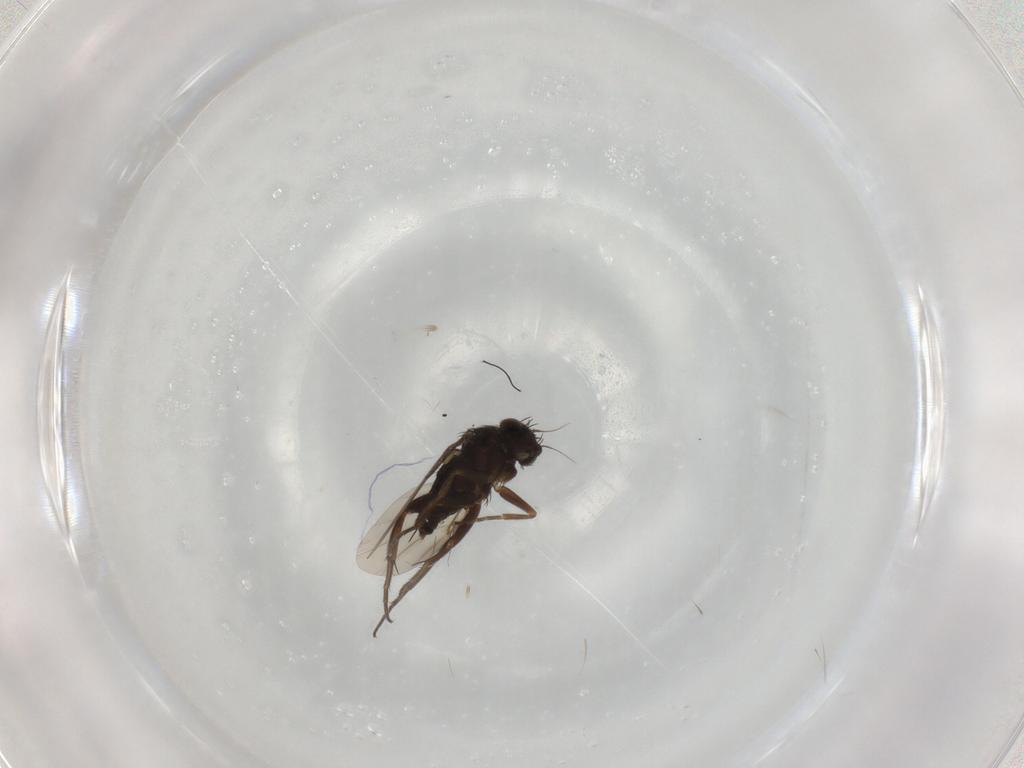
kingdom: Animalia
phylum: Arthropoda
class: Insecta
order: Diptera
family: Phoridae
